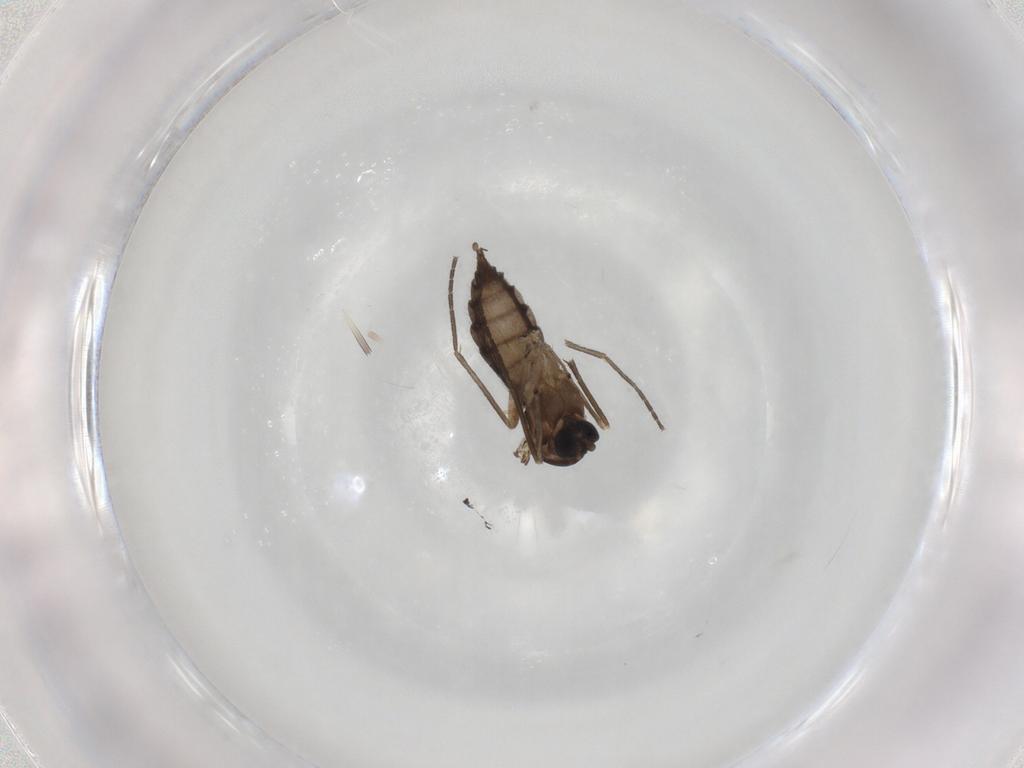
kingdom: Animalia
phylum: Arthropoda
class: Insecta
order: Diptera
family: Sciaridae
